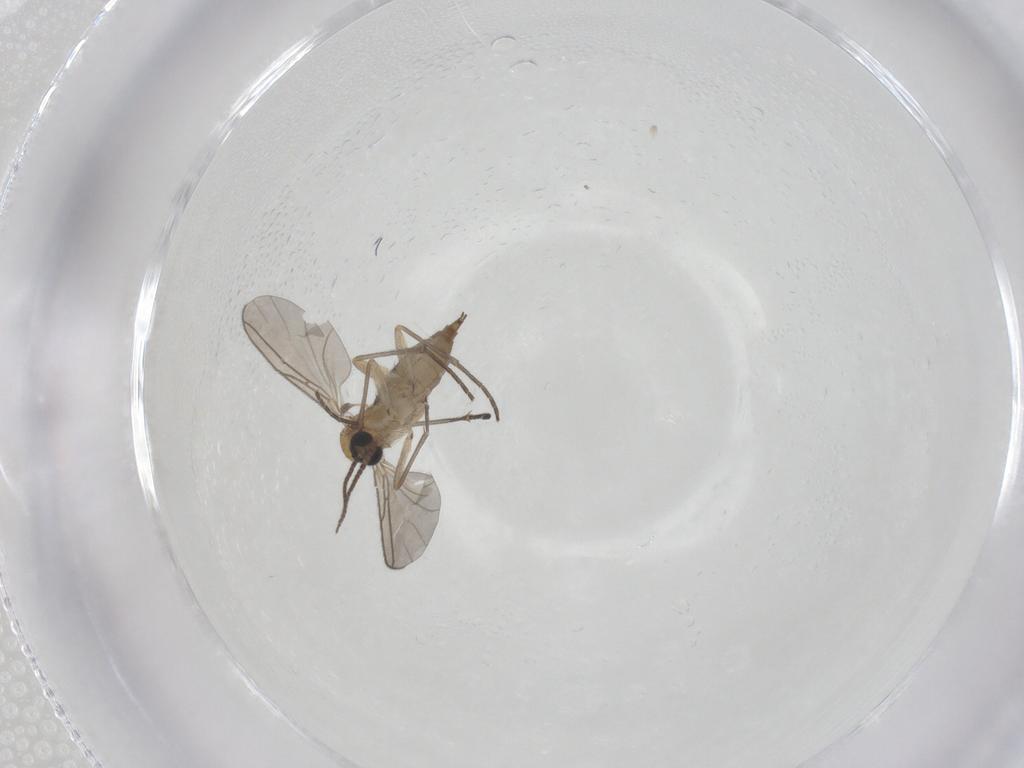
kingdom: Animalia
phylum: Arthropoda
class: Insecta
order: Diptera
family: Sciaridae
